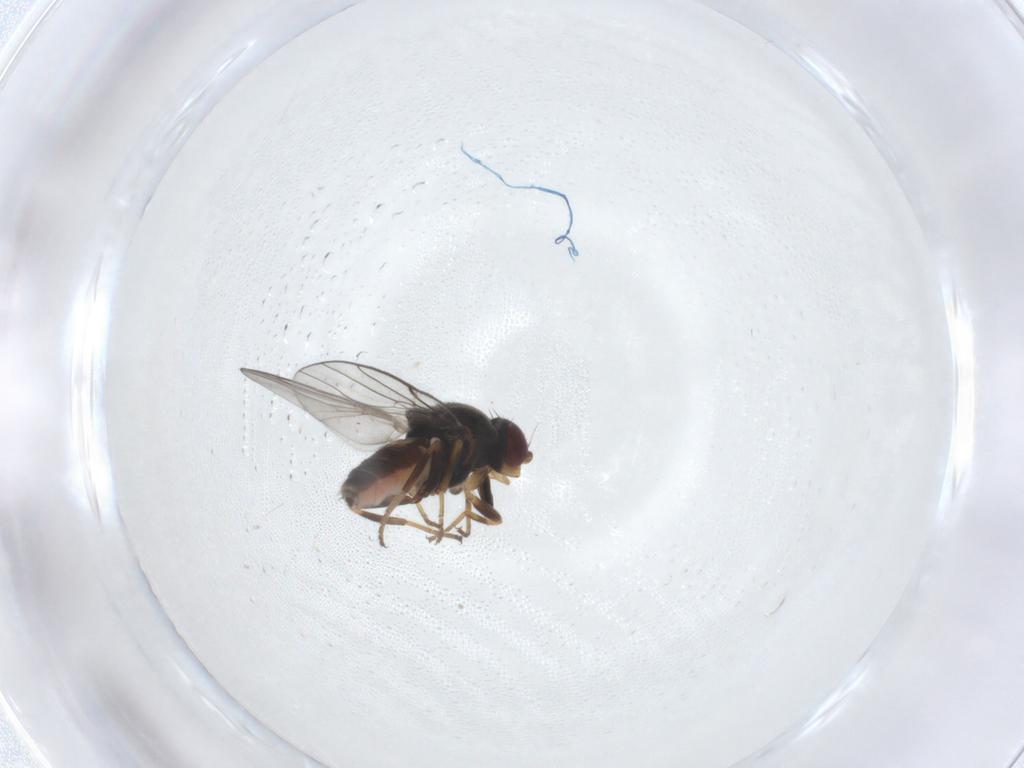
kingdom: Animalia
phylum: Arthropoda
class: Insecta
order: Diptera
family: Chloropidae
